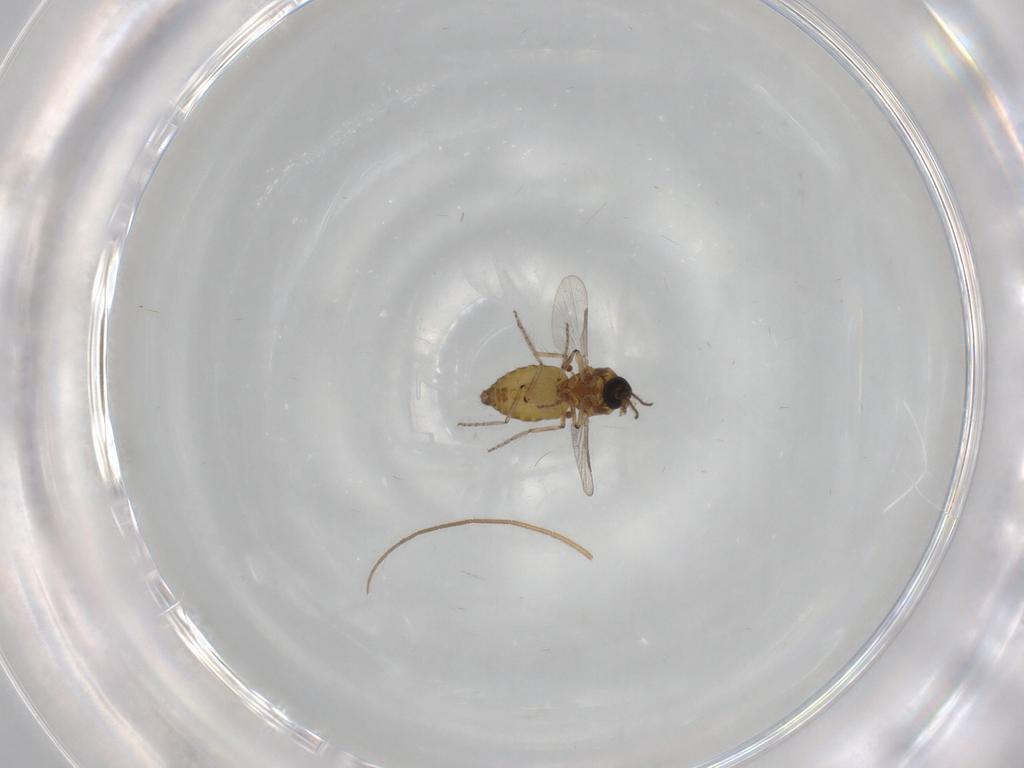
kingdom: Animalia
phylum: Arthropoda
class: Insecta
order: Diptera
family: Ceratopogonidae
